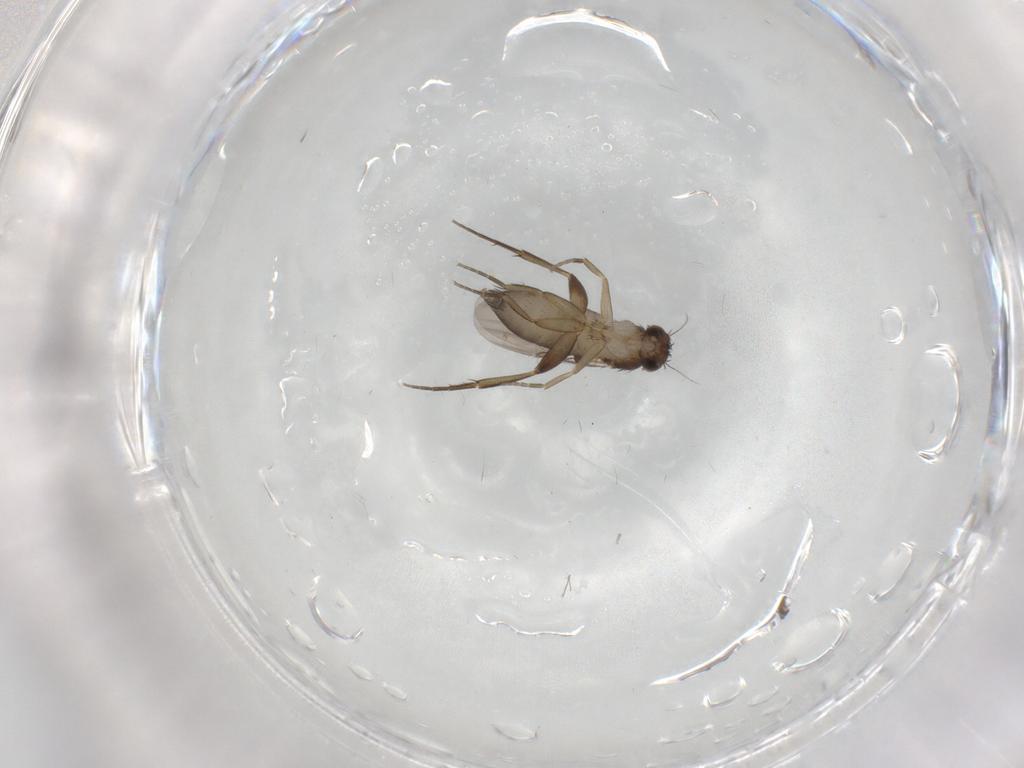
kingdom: Animalia
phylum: Arthropoda
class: Insecta
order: Diptera
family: Phoridae
